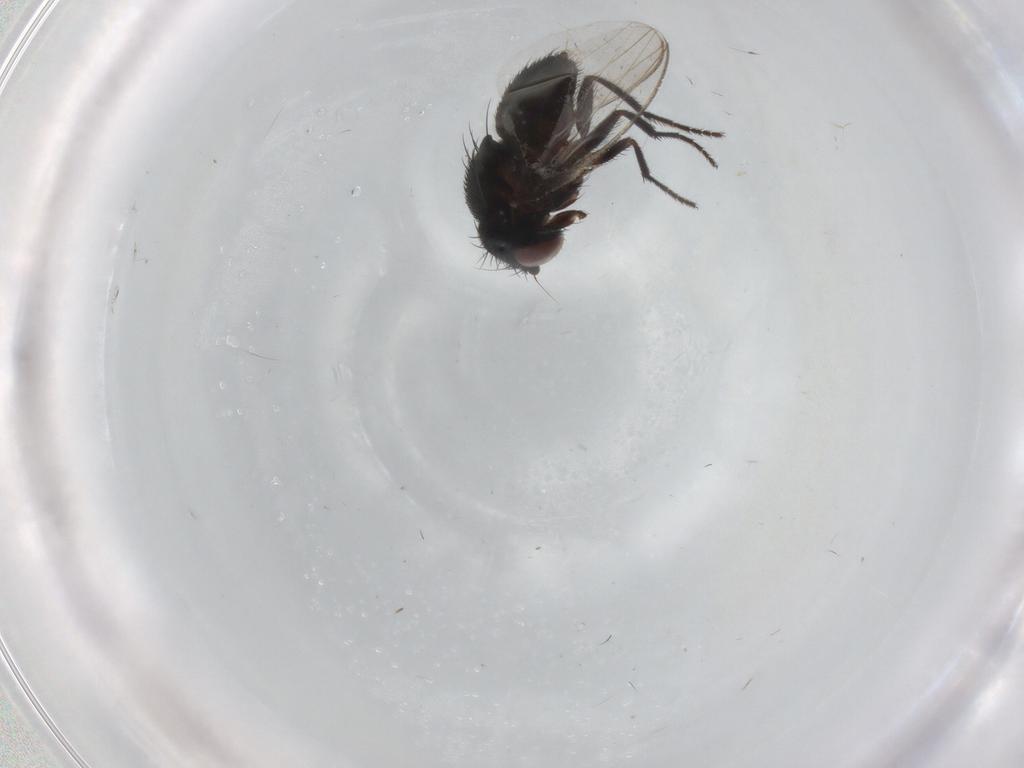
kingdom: Animalia
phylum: Arthropoda
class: Insecta
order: Diptera
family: Milichiidae
